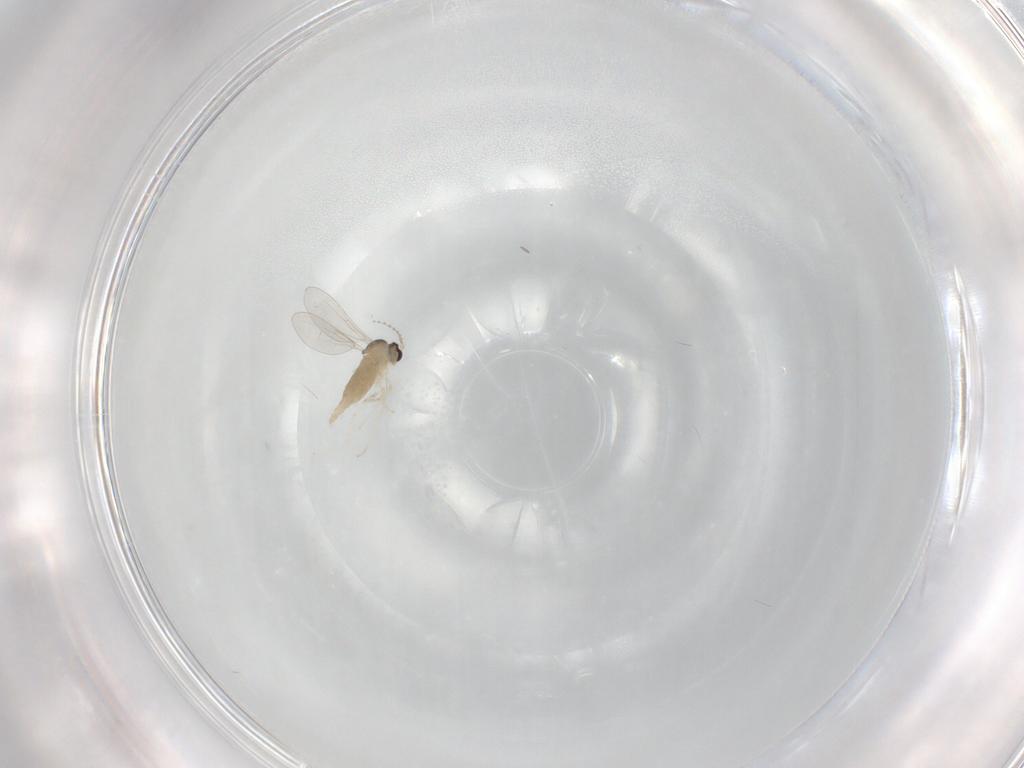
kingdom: Animalia
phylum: Arthropoda
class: Insecta
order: Diptera
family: Cecidomyiidae
